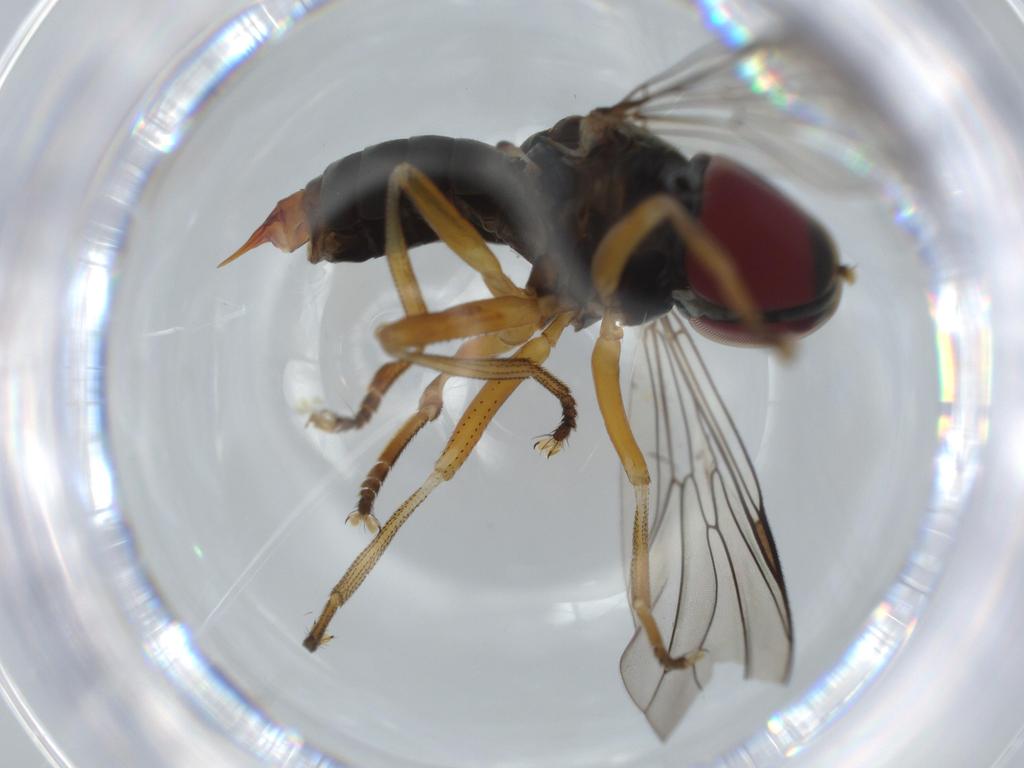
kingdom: Animalia
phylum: Arthropoda
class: Insecta
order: Diptera
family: Pipunculidae
